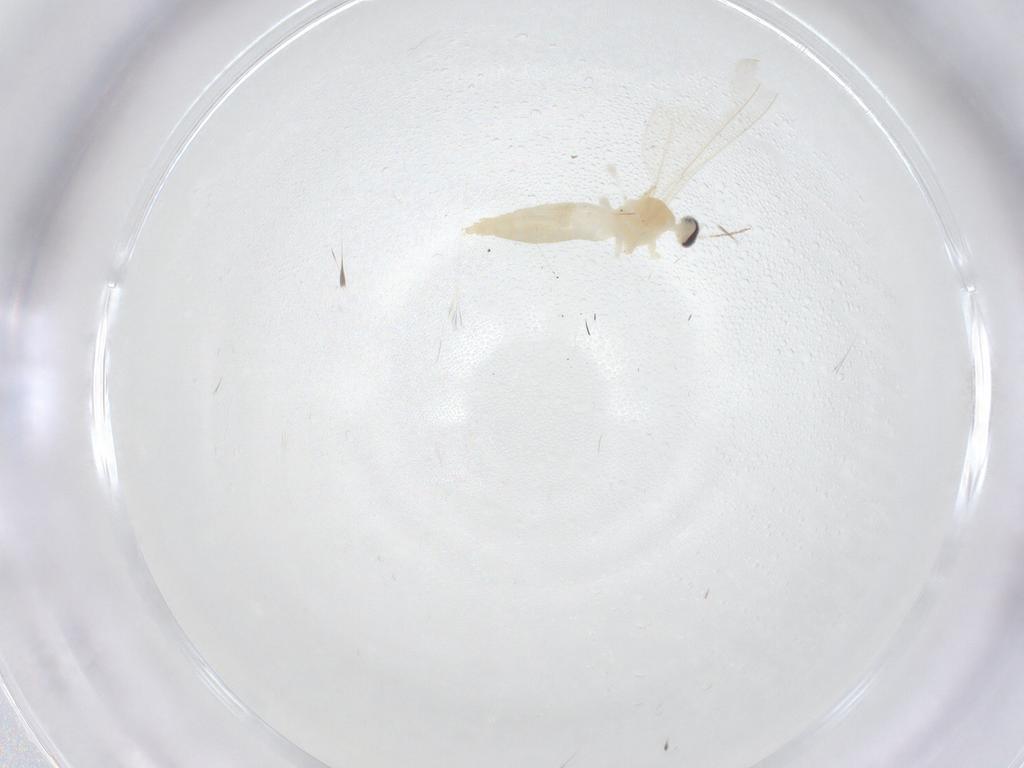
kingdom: Animalia
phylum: Arthropoda
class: Insecta
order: Diptera
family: Cecidomyiidae
